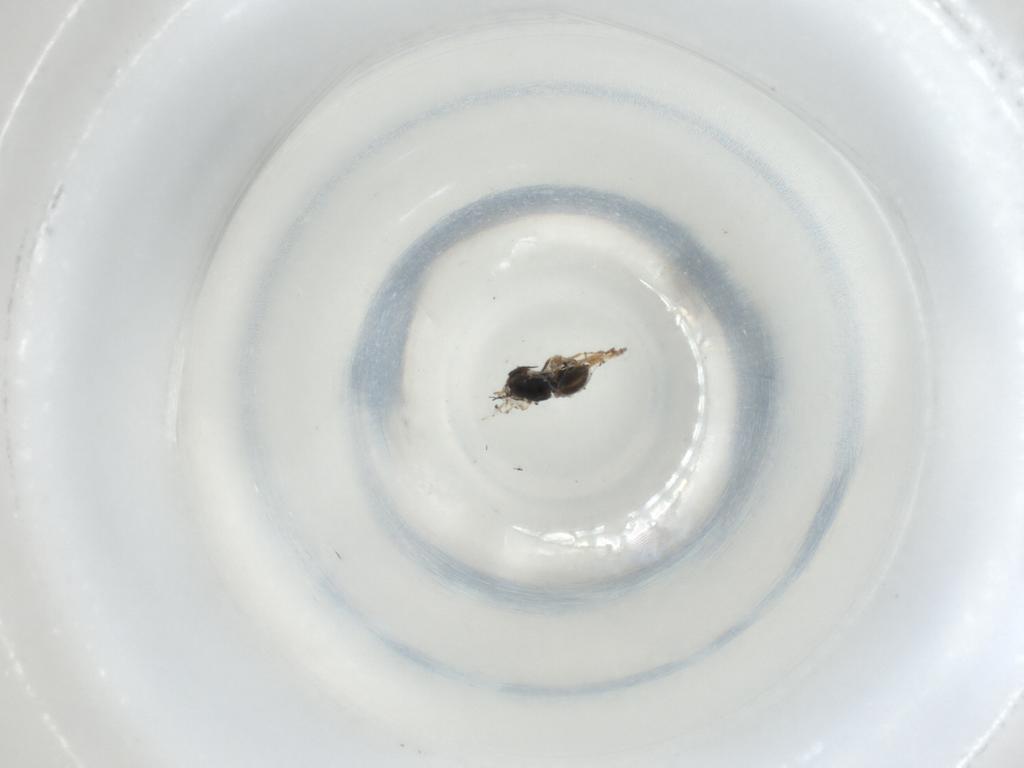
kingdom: Animalia
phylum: Arthropoda
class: Insecta
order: Hymenoptera
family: Scelionidae
